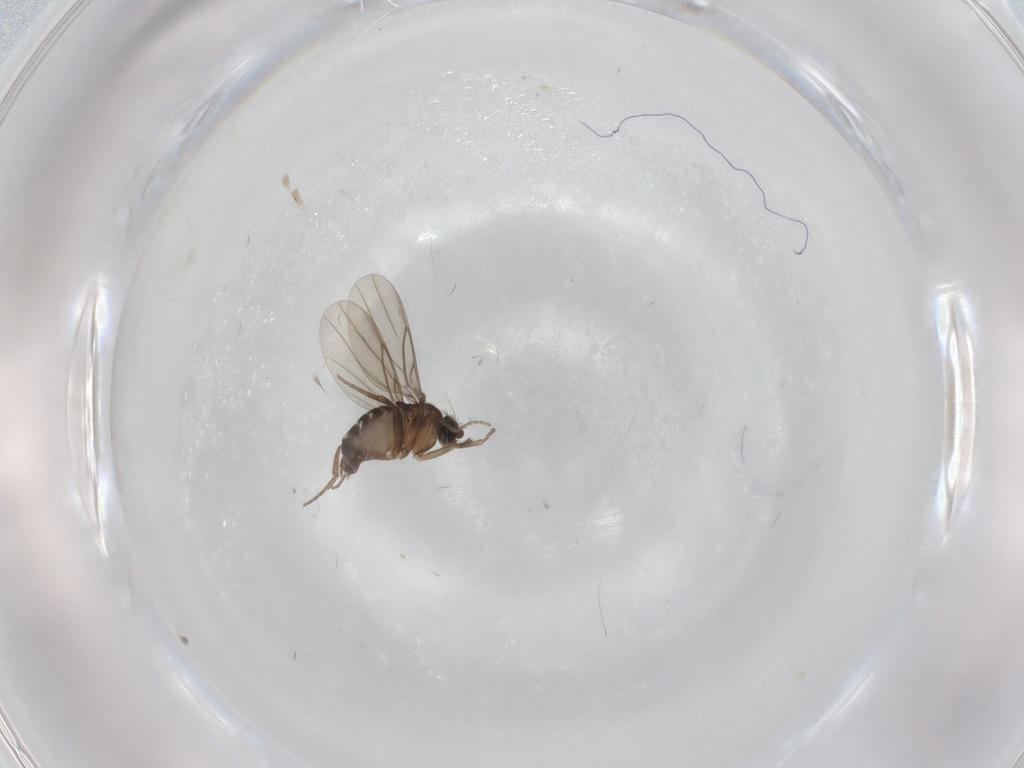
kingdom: Animalia
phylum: Arthropoda
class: Insecta
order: Diptera
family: Dolichopodidae
